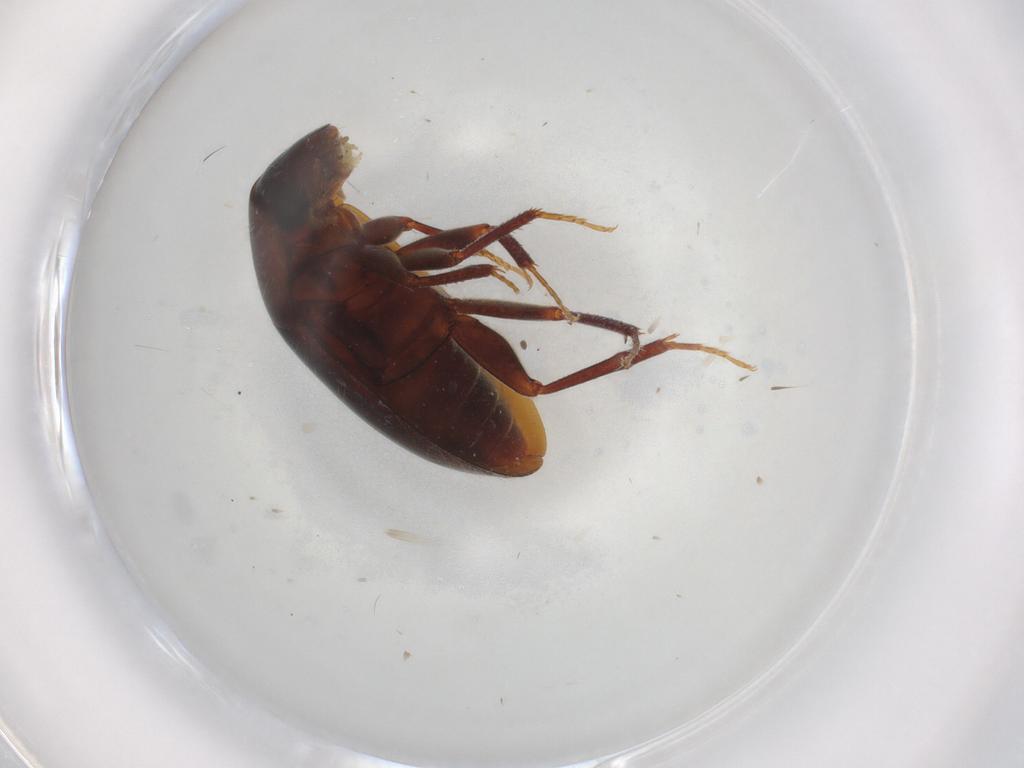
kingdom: Animalia
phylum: Arthropoda
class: Insecta
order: Coleoptera
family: Hydrophilidae
